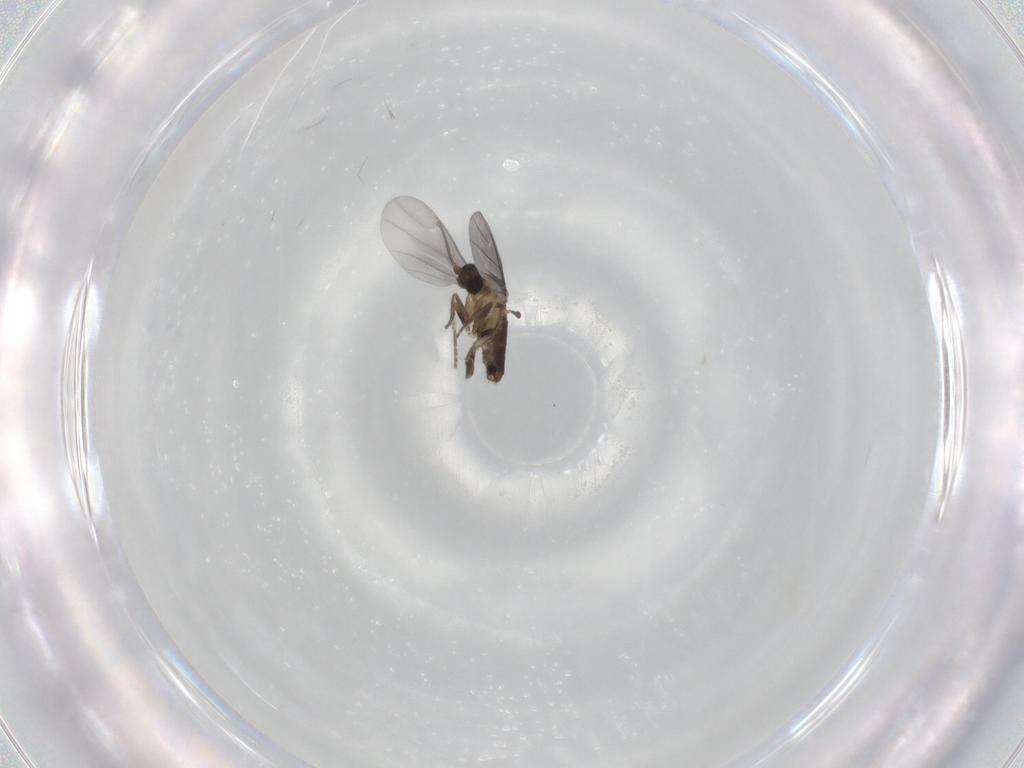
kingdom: Animalia
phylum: Arthropoda
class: Insecta
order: Diptera
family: Phoridae
